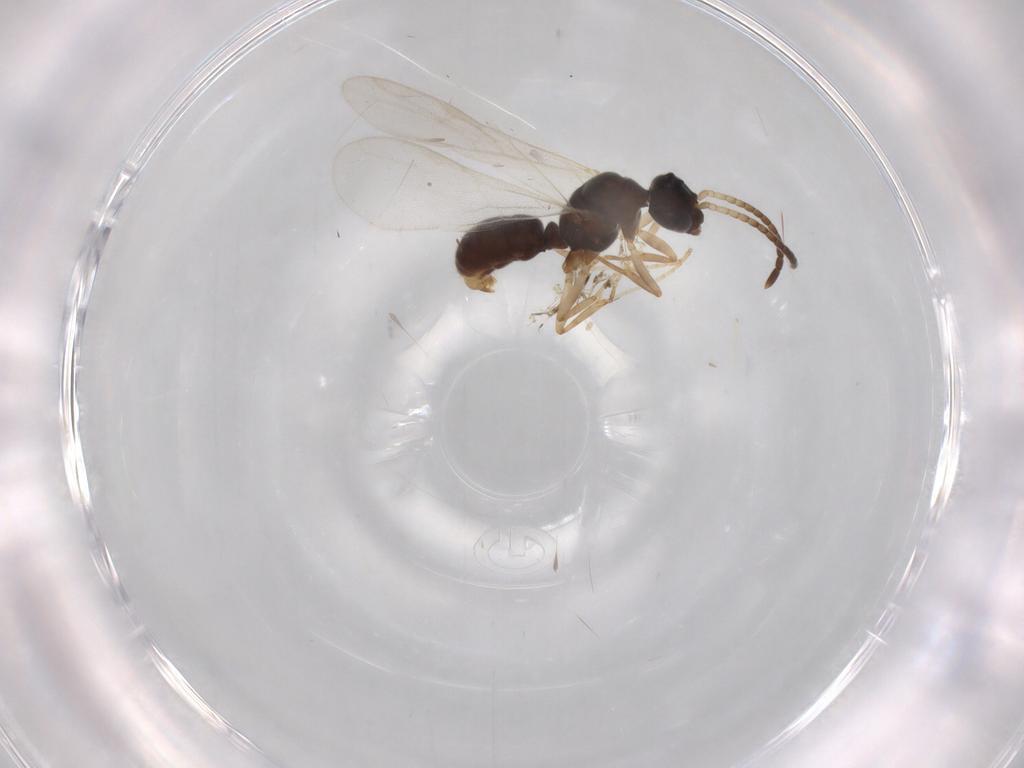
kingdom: Animalia
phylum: Arthropoda
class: Insecta
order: Hymenoptera
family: Formicidae
